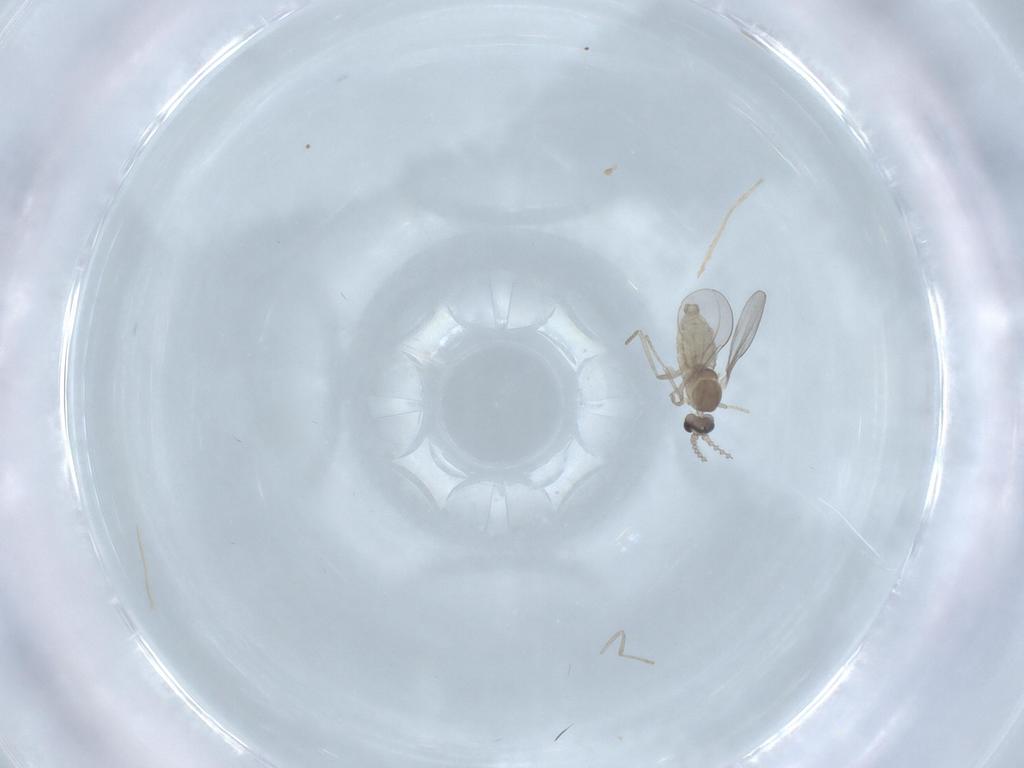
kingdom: Animalia
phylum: Arthropoda
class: Insecta
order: Diptera
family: Cecidomyiidae
